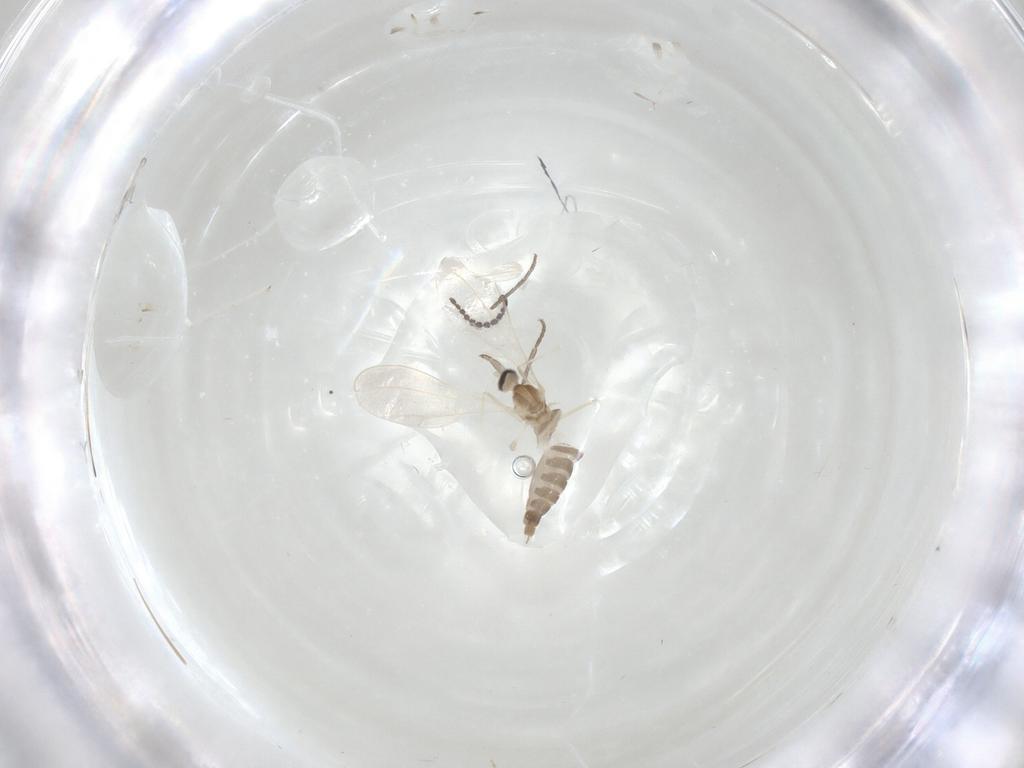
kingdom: Animalia
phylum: Arthropoda
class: Insecta
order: Diptera
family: Cecidomyiidae
